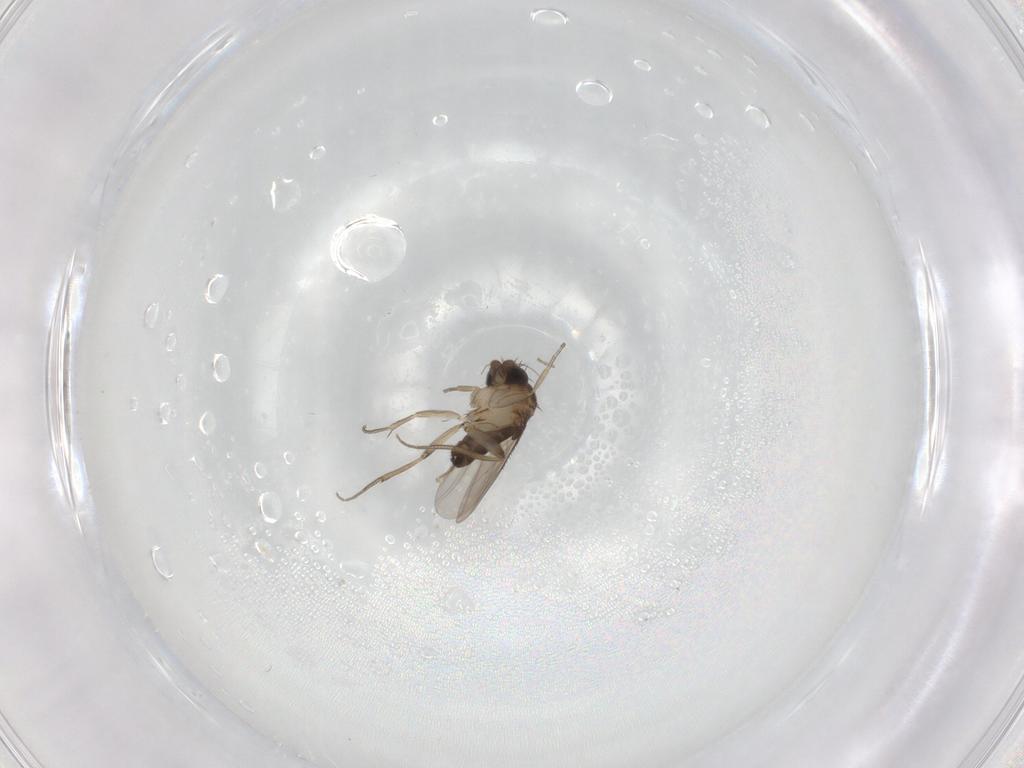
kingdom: Animalia
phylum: Arthropoda
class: Insecta
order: Diptera
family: Phoridae
